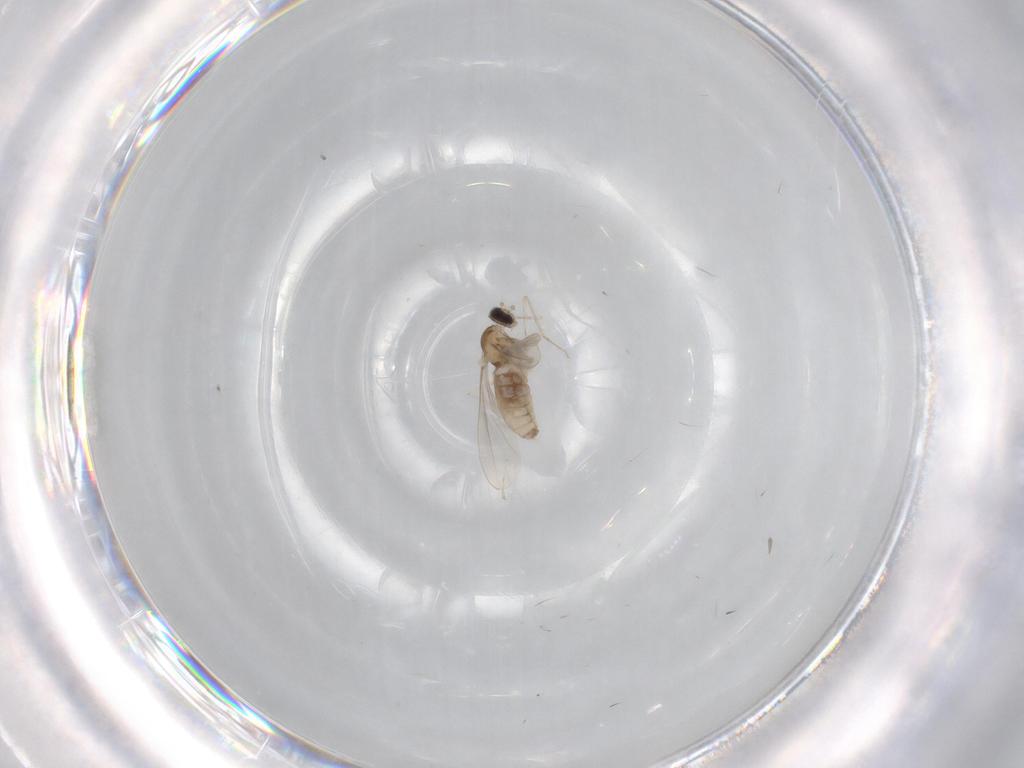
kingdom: Animalia
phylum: Arthropoda
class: Insecta
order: Diptera
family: Cecidomyiidae
